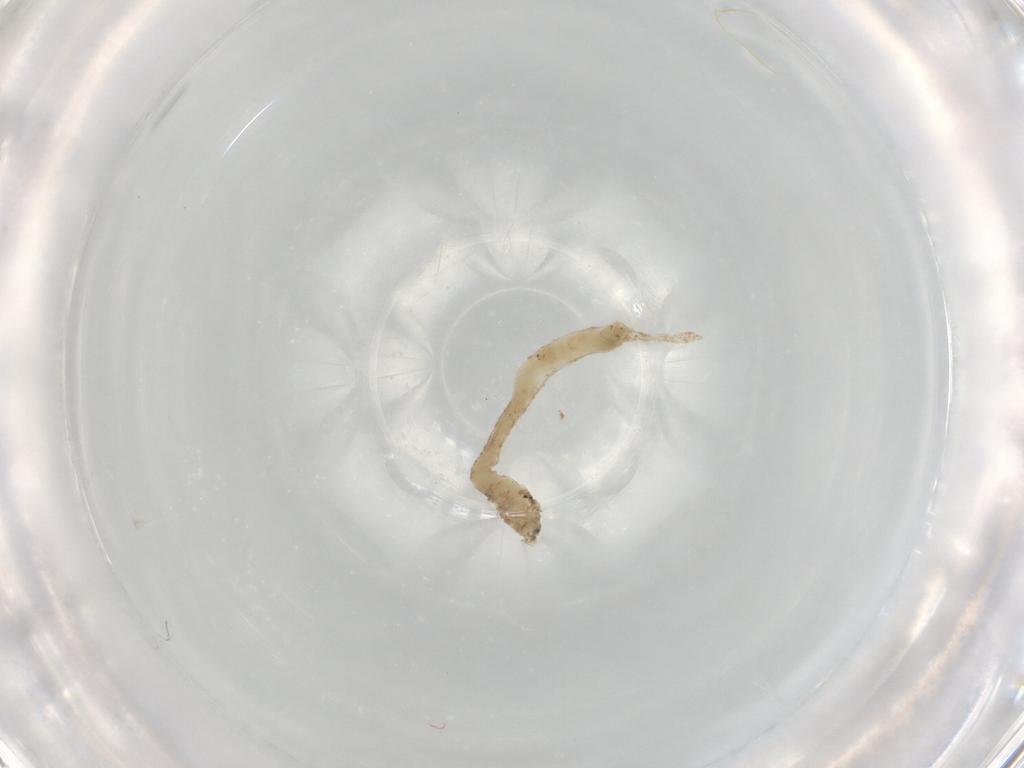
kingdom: Animalia
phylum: Arthropoda
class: Insecta
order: Diptera
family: Chironomidae
